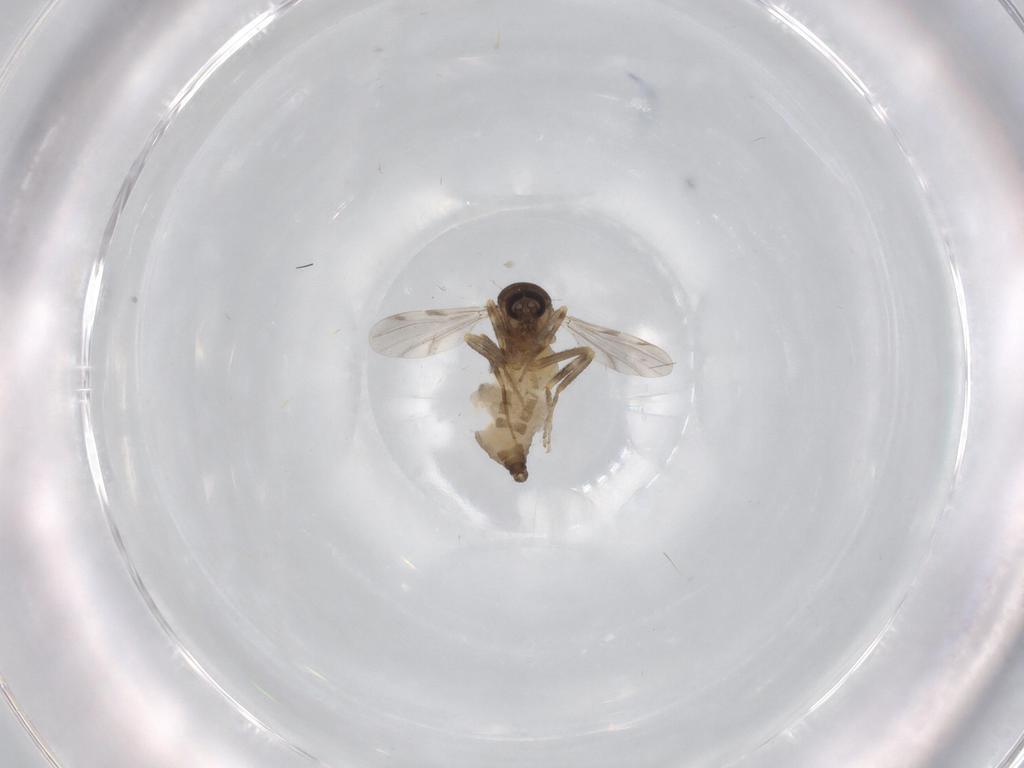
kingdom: Animalia
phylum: Arthropoda
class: Insecta
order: Diptera
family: Ceratopogonidae
